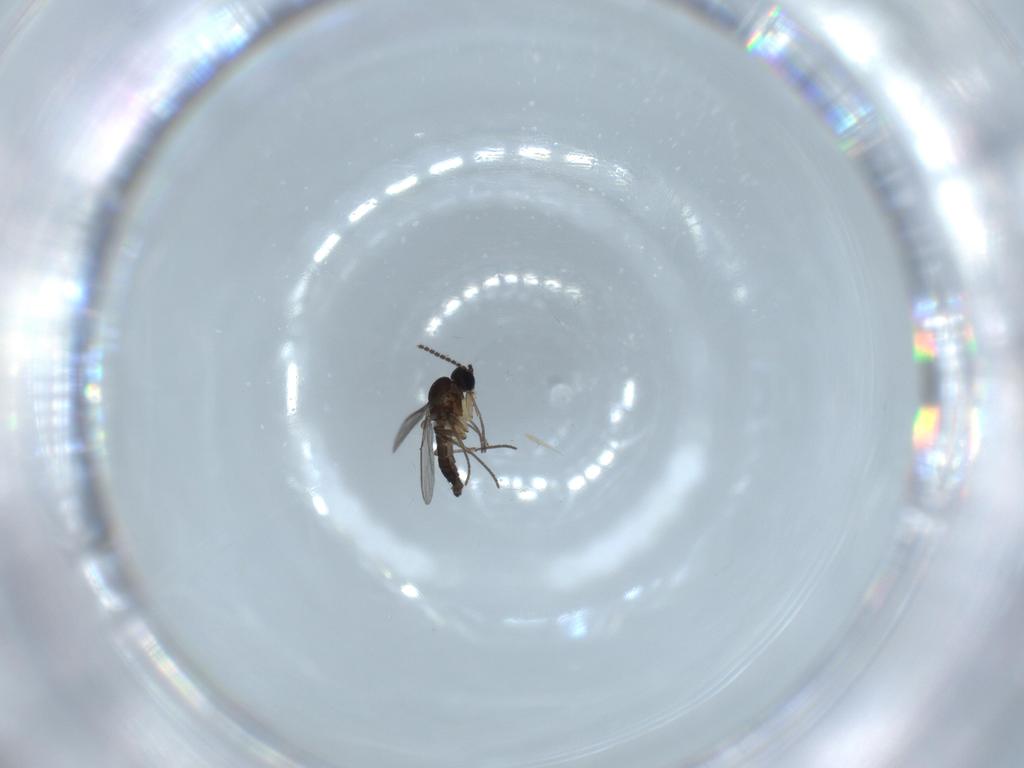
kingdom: Animalia
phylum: Arthropoda
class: Insecta
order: Diptera
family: Sciaridae
